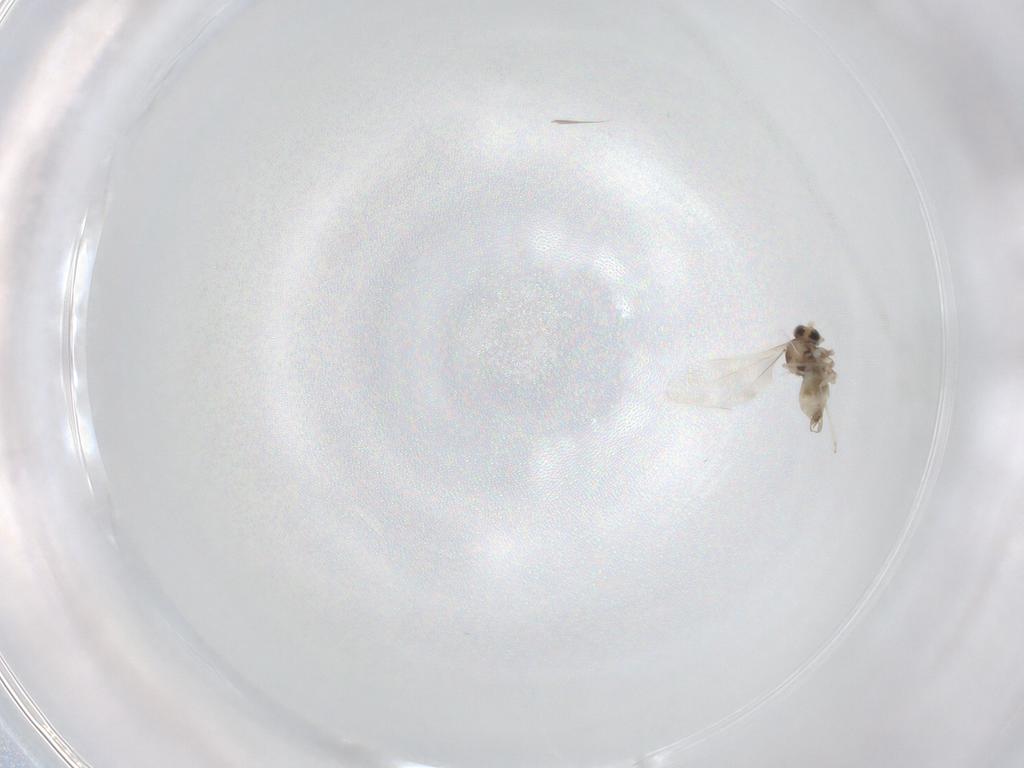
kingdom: Animalia
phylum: Arthropoda
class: Insecta
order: Diptera
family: Cecidomyiidae
